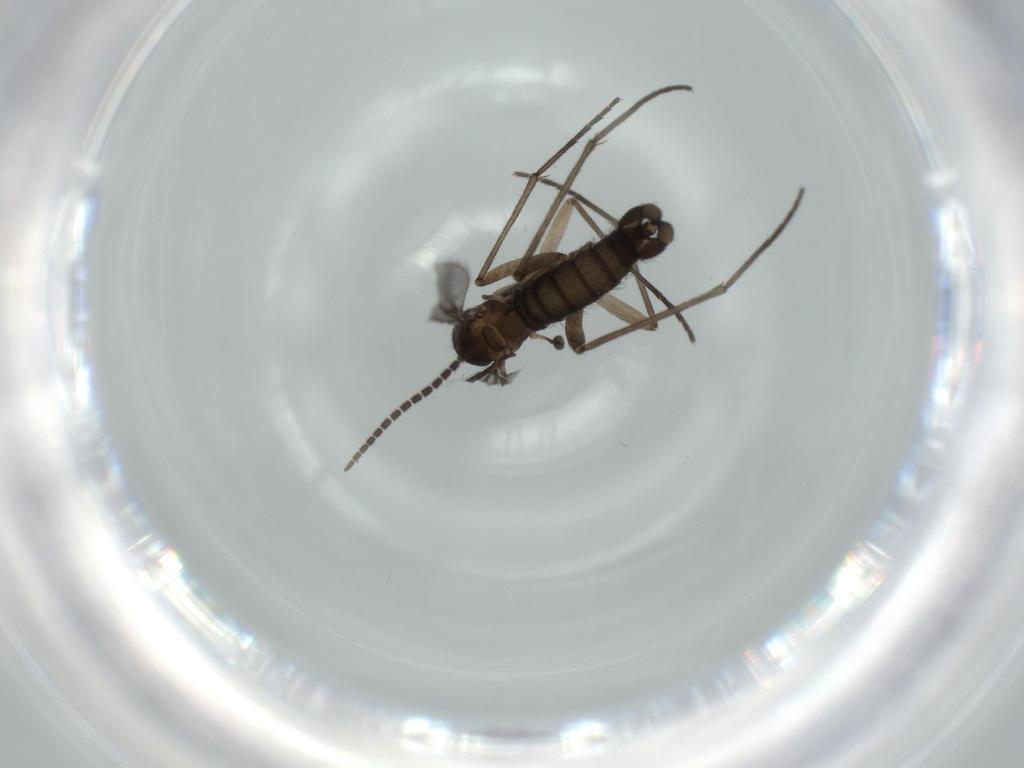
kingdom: Animalia
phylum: Arthropoda
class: Insecta
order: Diptera
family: Sciaridae
